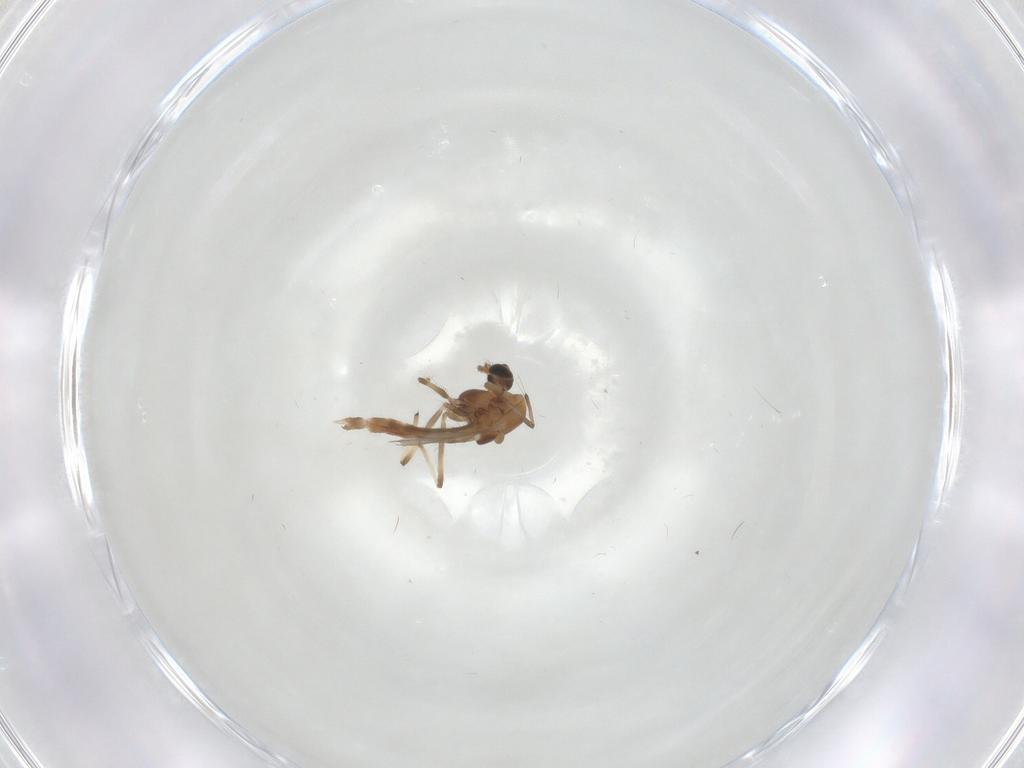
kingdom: Animalia
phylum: Arthropoda
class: Insecta
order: Diptera
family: Chironomidae
